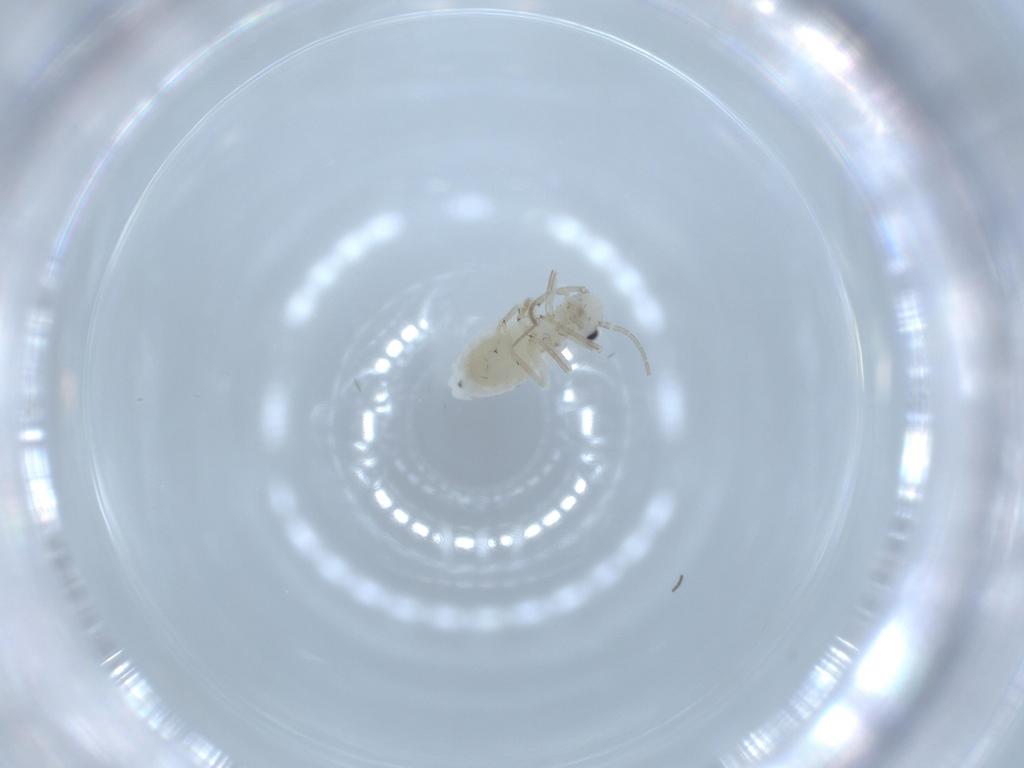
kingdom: Animalia
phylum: Arthropoda
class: Insecta
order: Psocodea
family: Caeciliusidae
